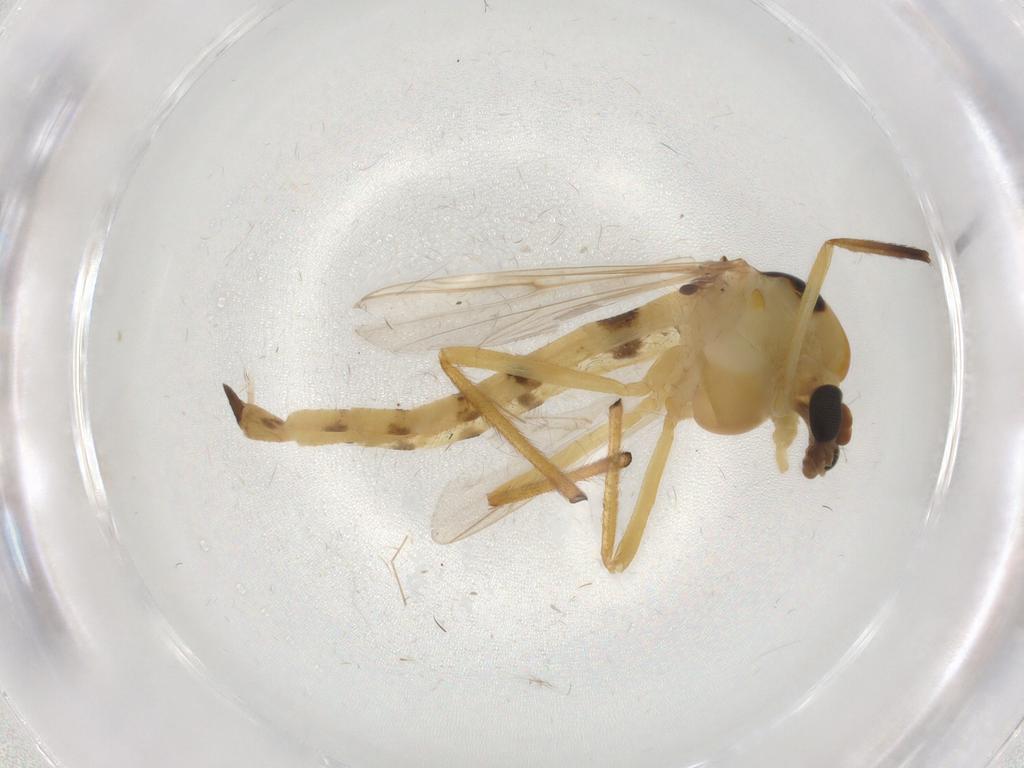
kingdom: Animalia
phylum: Arthropoda
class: Insecta
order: Diptera
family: Chironomidae
